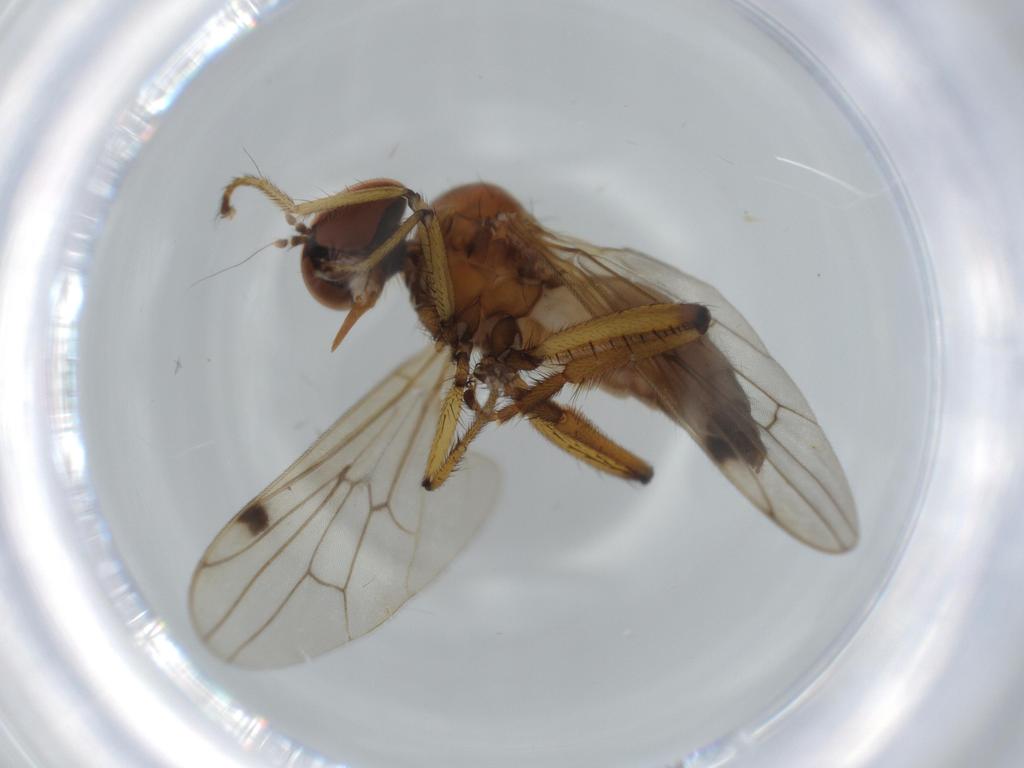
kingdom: Animalia
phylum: Arthropoda
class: Insecta
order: Diptera
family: Hybotidae
